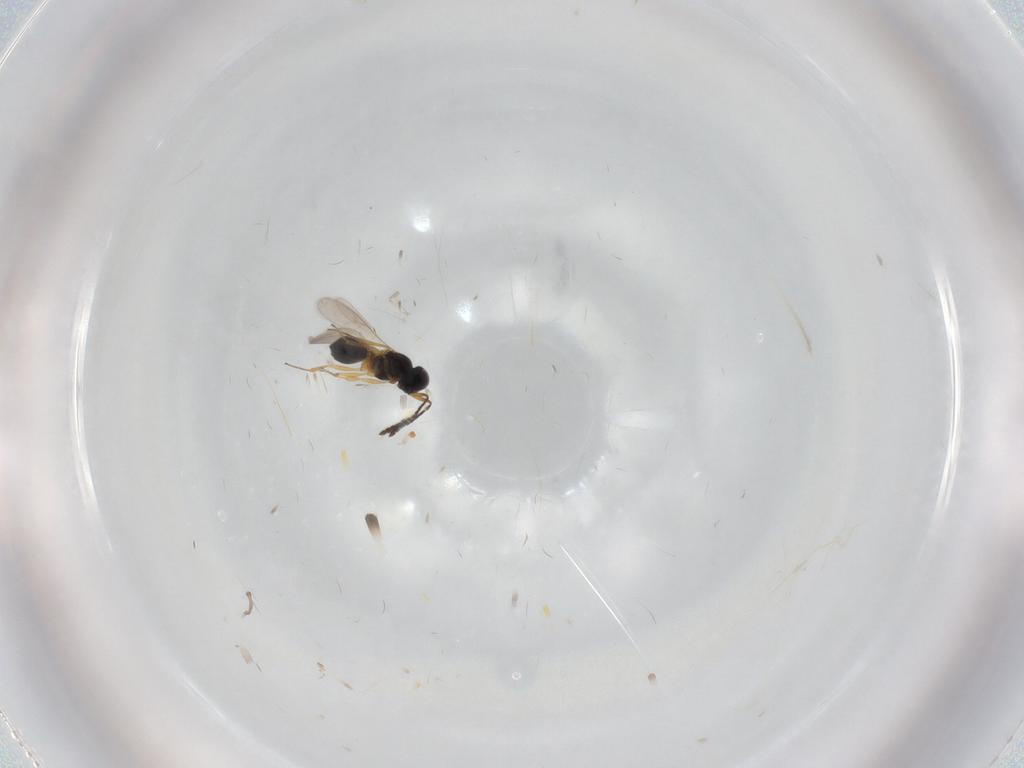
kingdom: Animalia
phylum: Arthropoda
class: Insecta
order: Hymenoptera
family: Scelionidae
